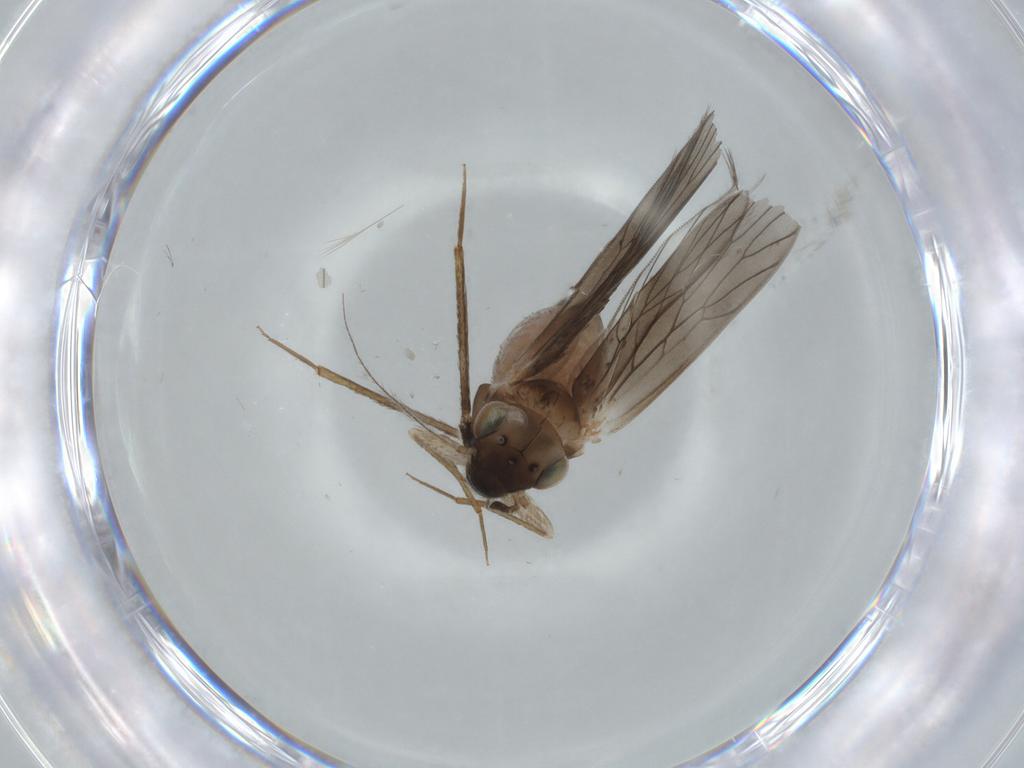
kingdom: Animalia
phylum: Arthropoda
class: Insecta
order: Psocodea
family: Lepidopsocidae
